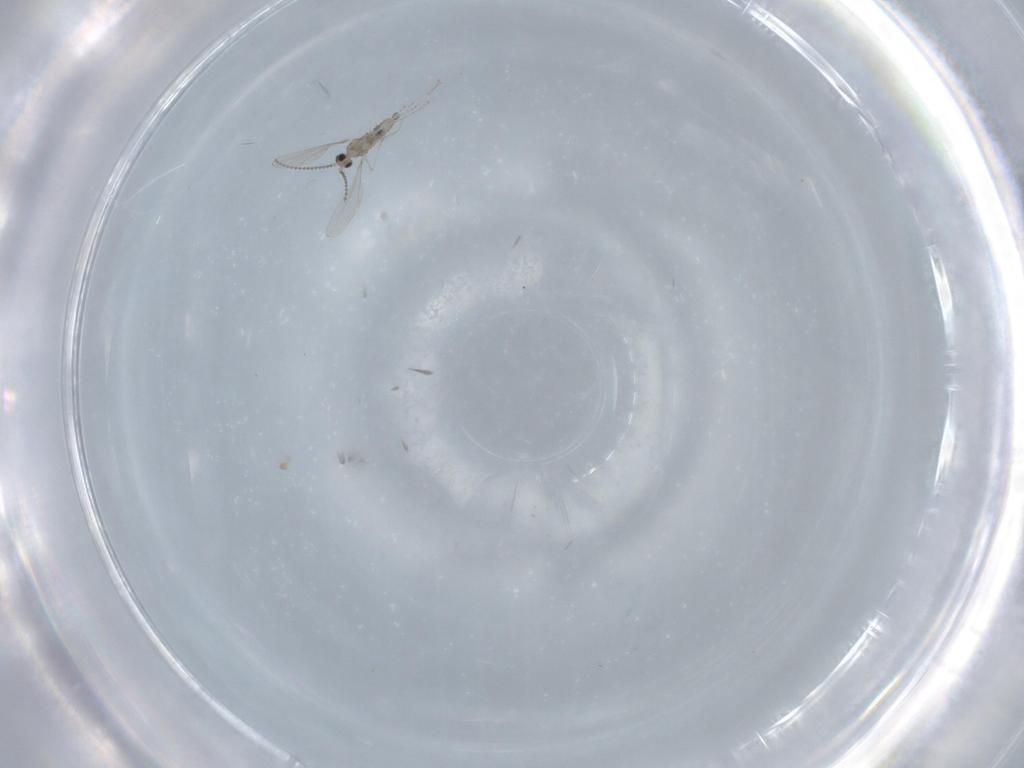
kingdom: Animalia
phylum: Arthropoda
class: Insecta
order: Diptera
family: Cecidomyiidae
